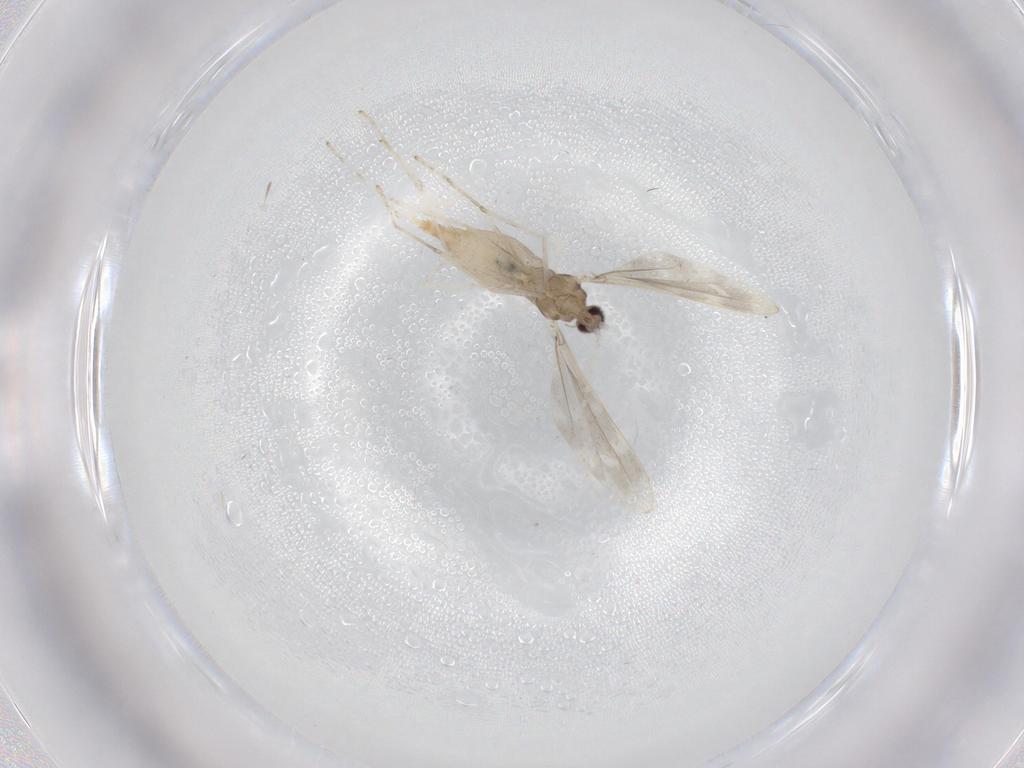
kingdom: Animalia
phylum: Arthropoda
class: Insecta
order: Diptera
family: Cecidomyiidae
